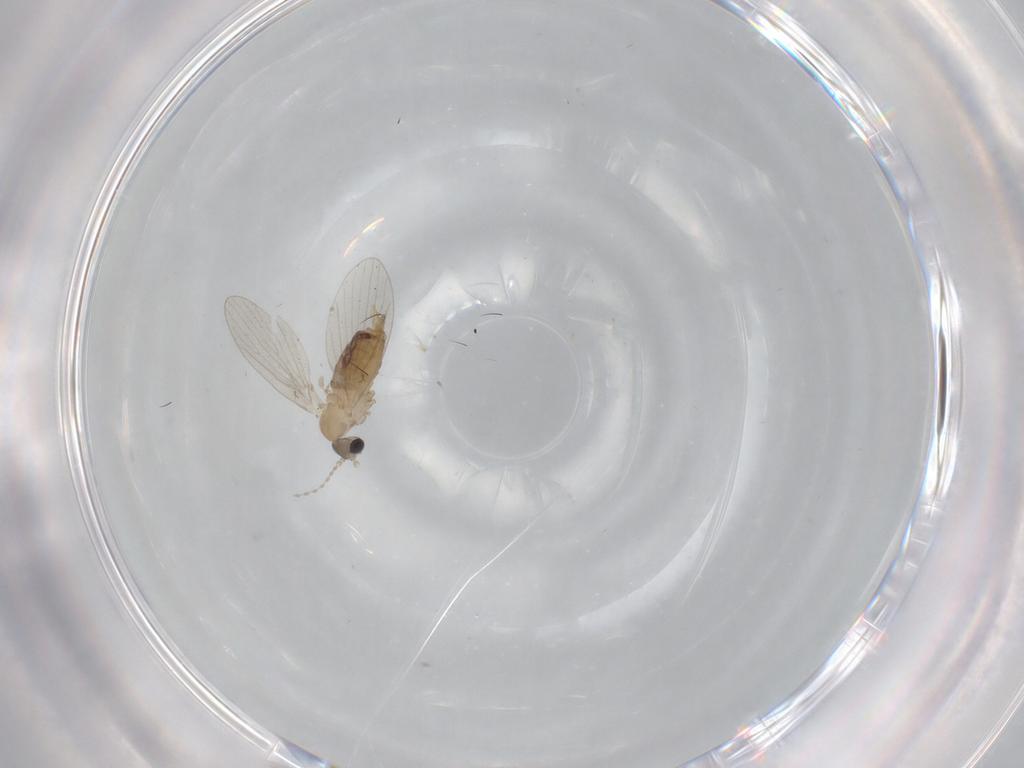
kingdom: Animalia
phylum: Arthropoda
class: Insecta
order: Diptera
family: Psychodidae
